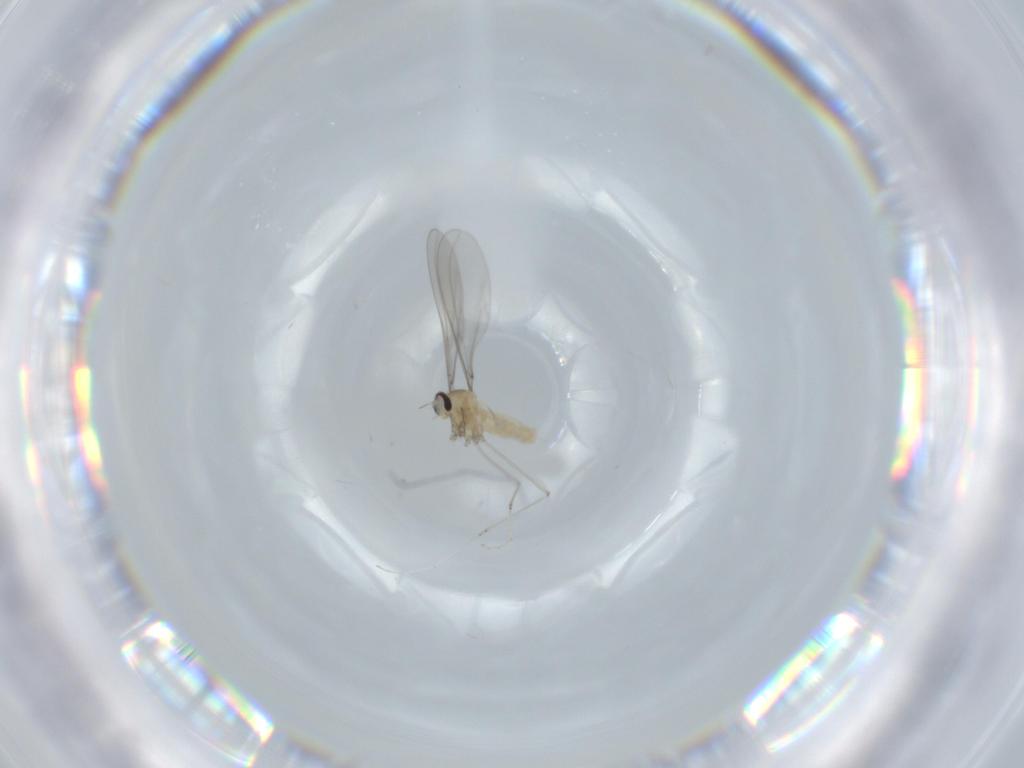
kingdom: Animalia
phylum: Arthropoda
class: Insecta
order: Diptera
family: Cecidomyiidae
